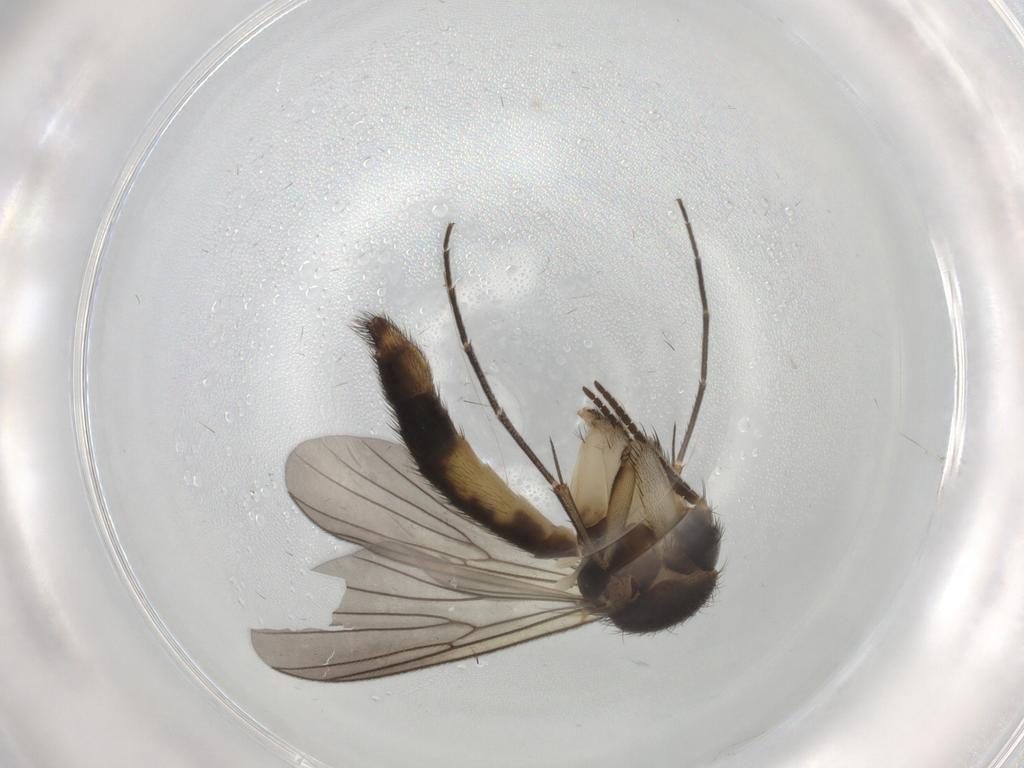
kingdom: Animalia
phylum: Arthropoda
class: Insecta
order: Diptera
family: Mycetophilidae
